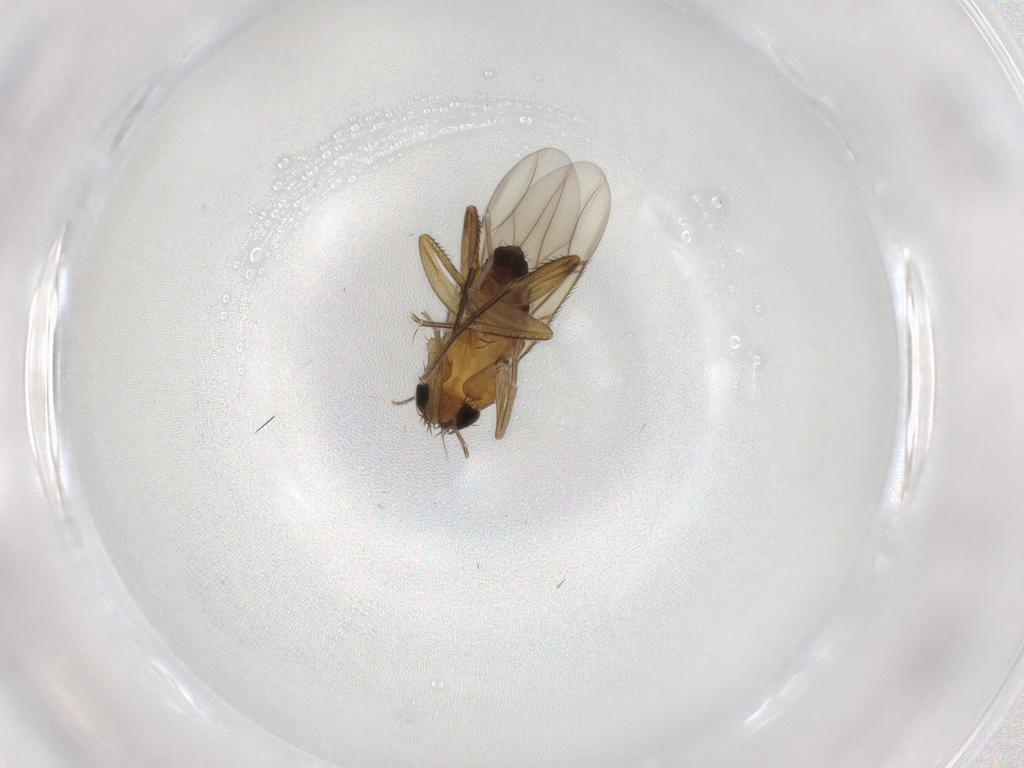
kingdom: Animalia
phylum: Arthropoda
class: Insecta
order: Diptera
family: Phoridae
